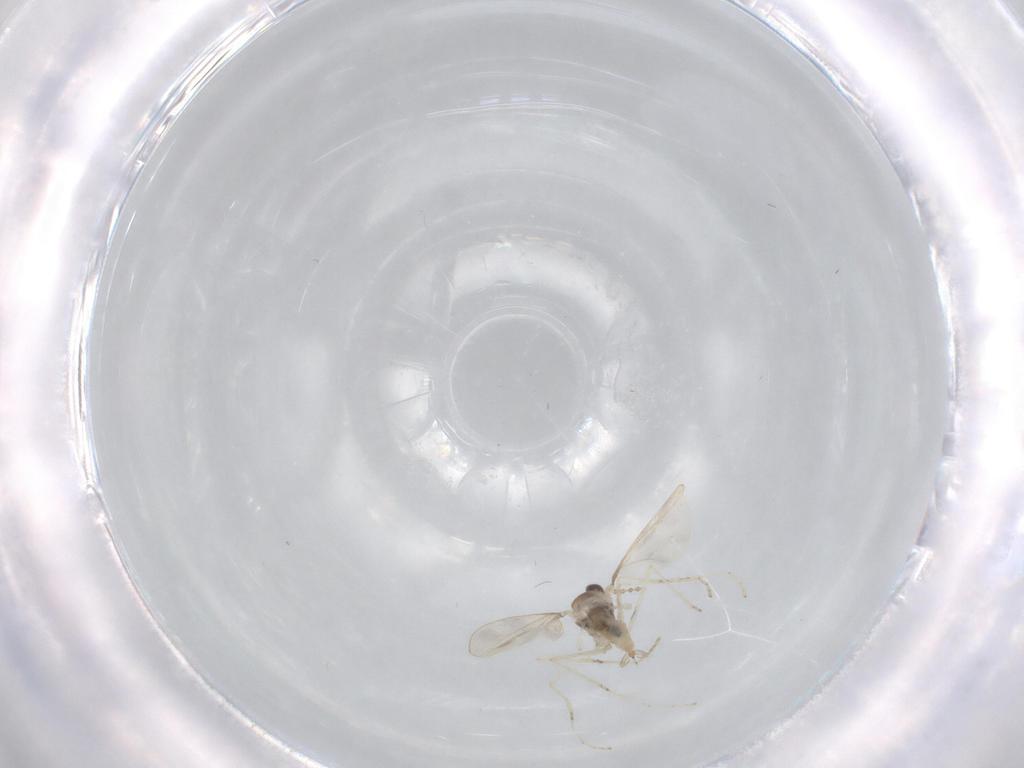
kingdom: Animalia
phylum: Arthropoda
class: Insecta
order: Diptera
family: Cecidomyiidae
